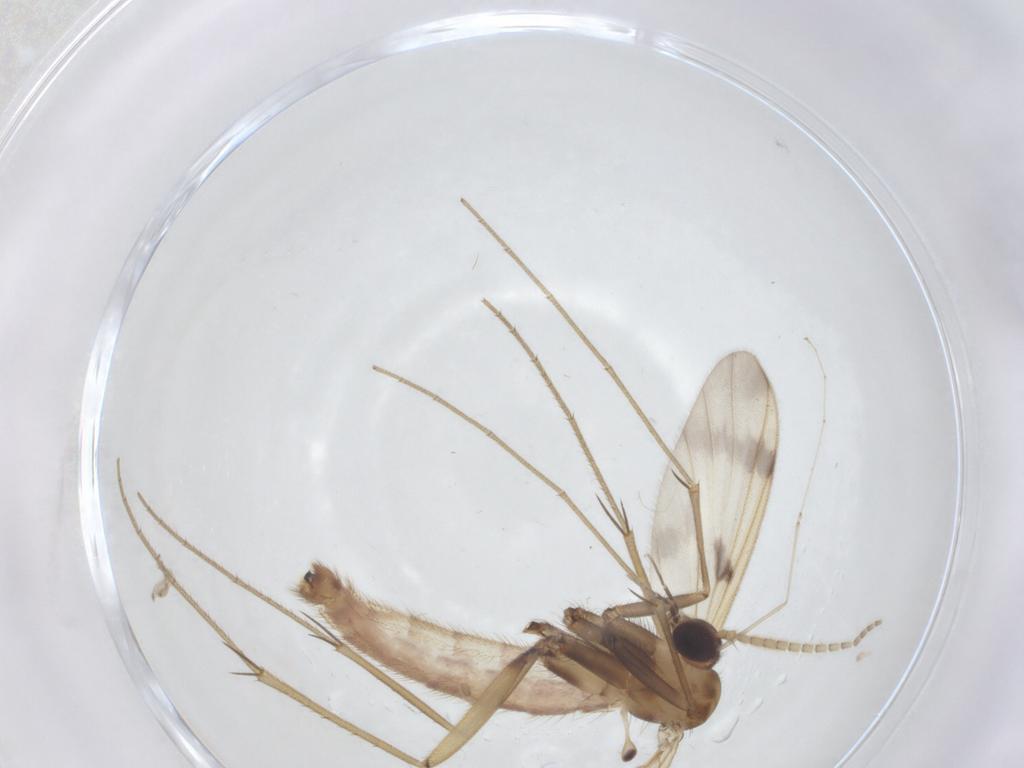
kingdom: Animalia
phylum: Arthropoda
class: Insecta
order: Diptera
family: Mycetophilidae
